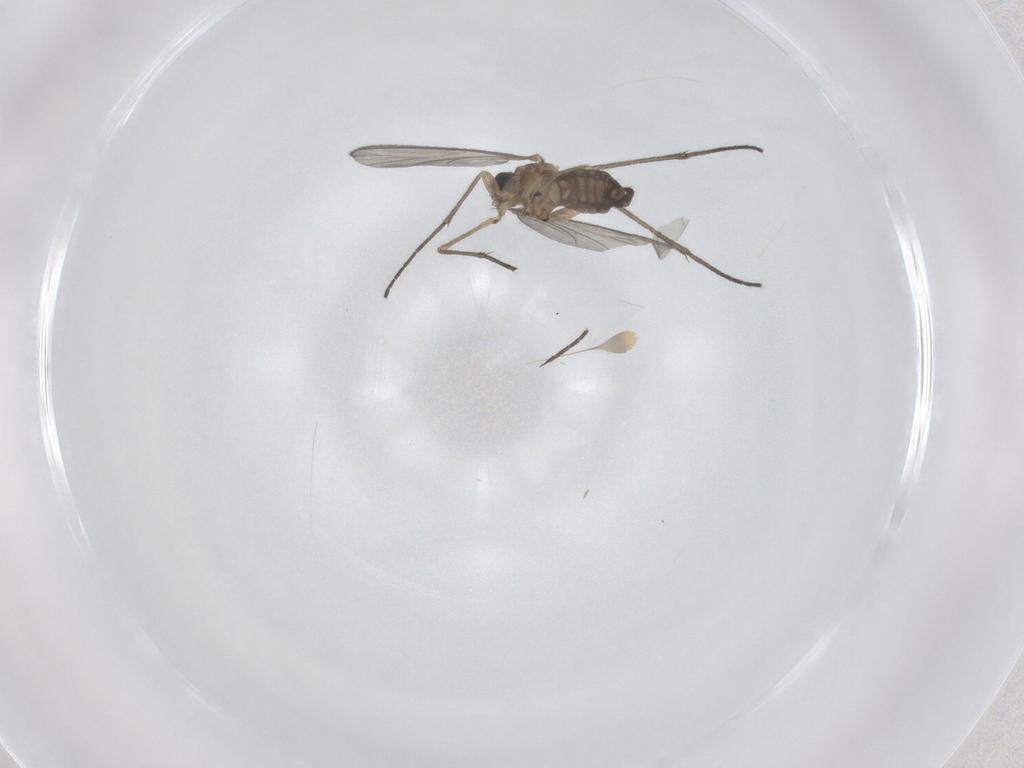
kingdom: Animalia
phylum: Arthropoda
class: Insecta
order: Diptera
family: Sciaridae
